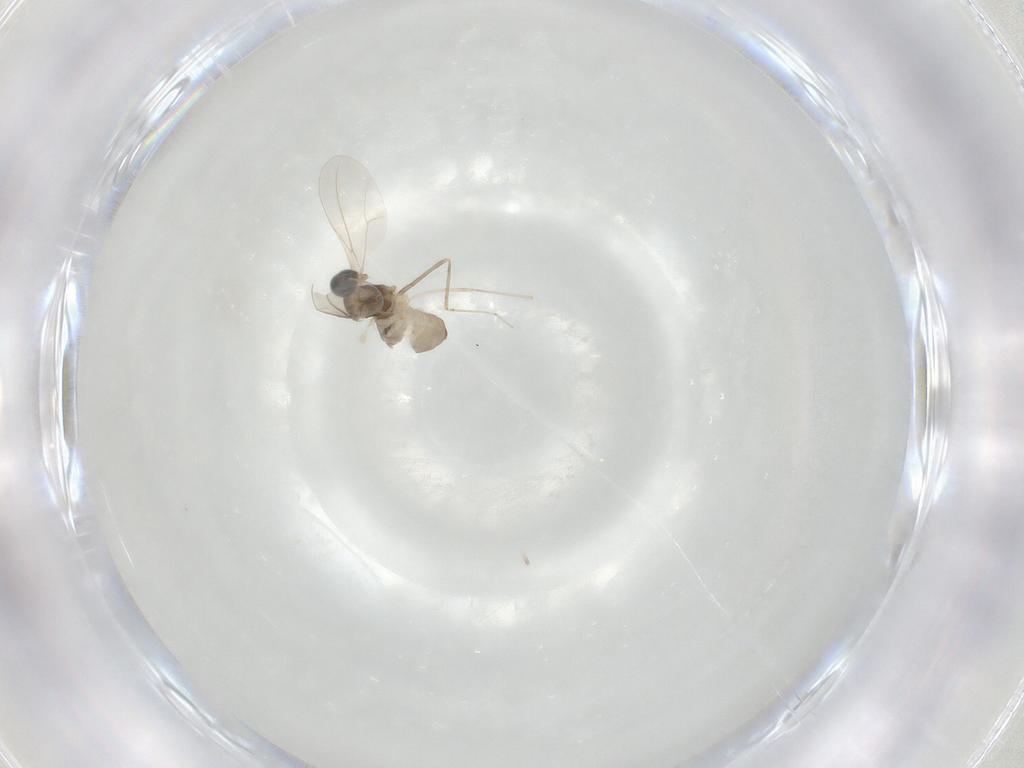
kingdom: Animalia
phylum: Arthropoda
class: Insecta
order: Diptera
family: Cecidomyiidae
